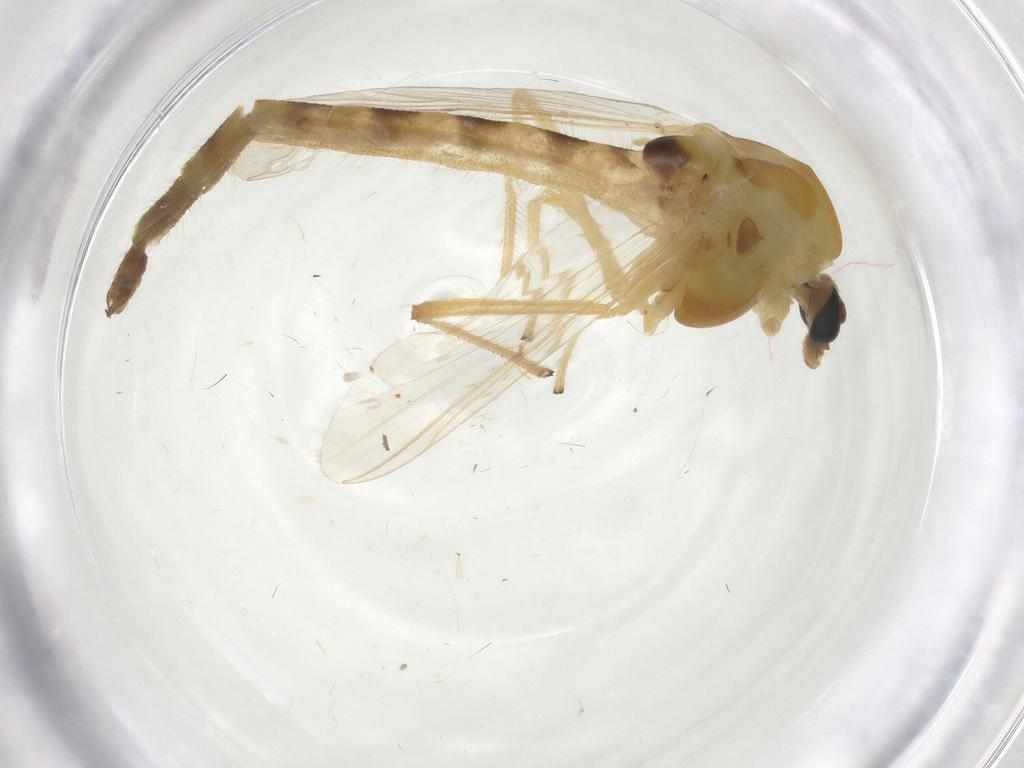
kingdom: Animalia
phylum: Arthropoda
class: Insecta
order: Diptera
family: Chironomidae
